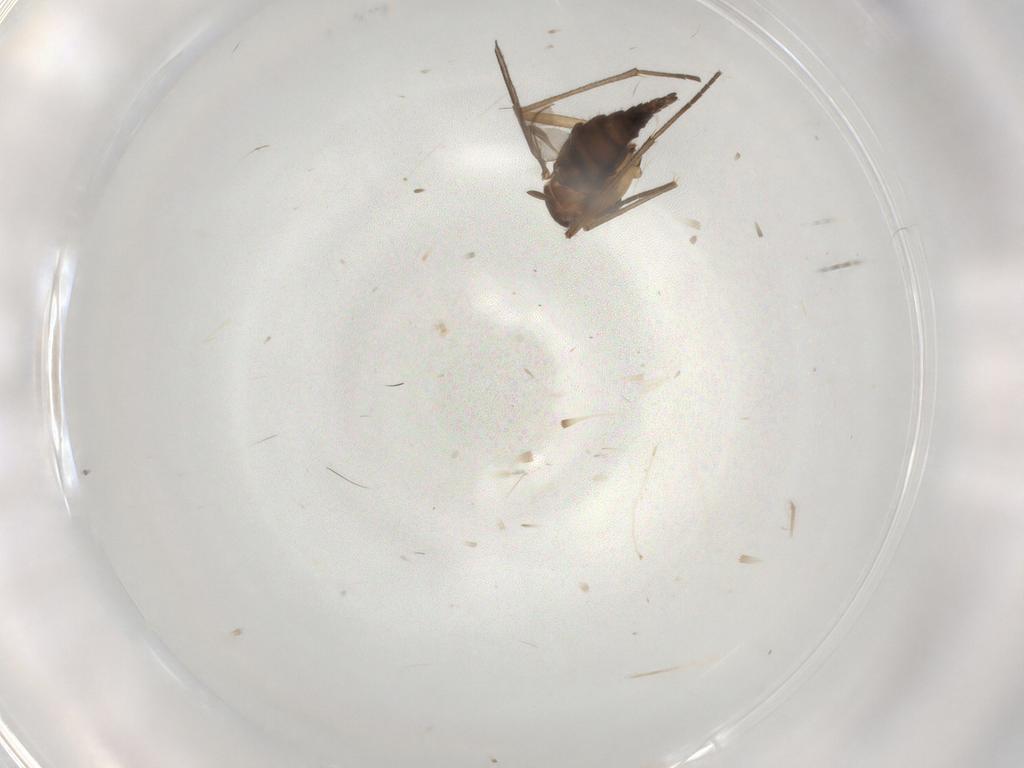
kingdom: Animalia
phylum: Arthropoda
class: Insecta
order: Diptera
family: Sciaridae
